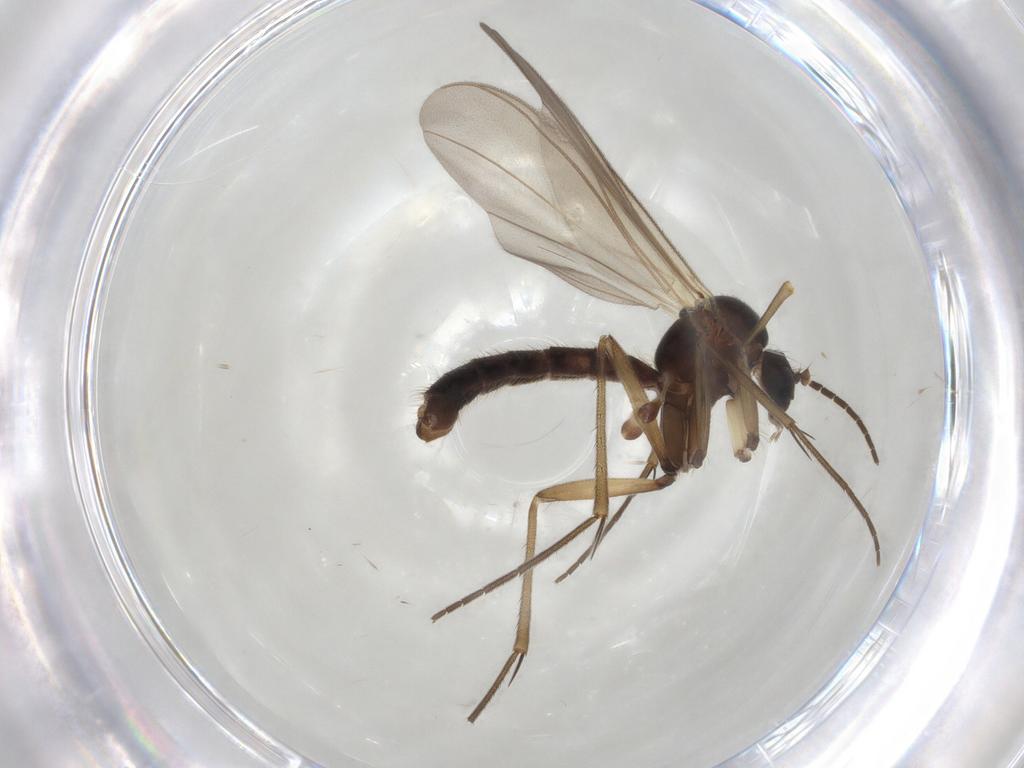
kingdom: Animalia
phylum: Arthropoda
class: Insecta
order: Diptera
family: Mycetophilidae
